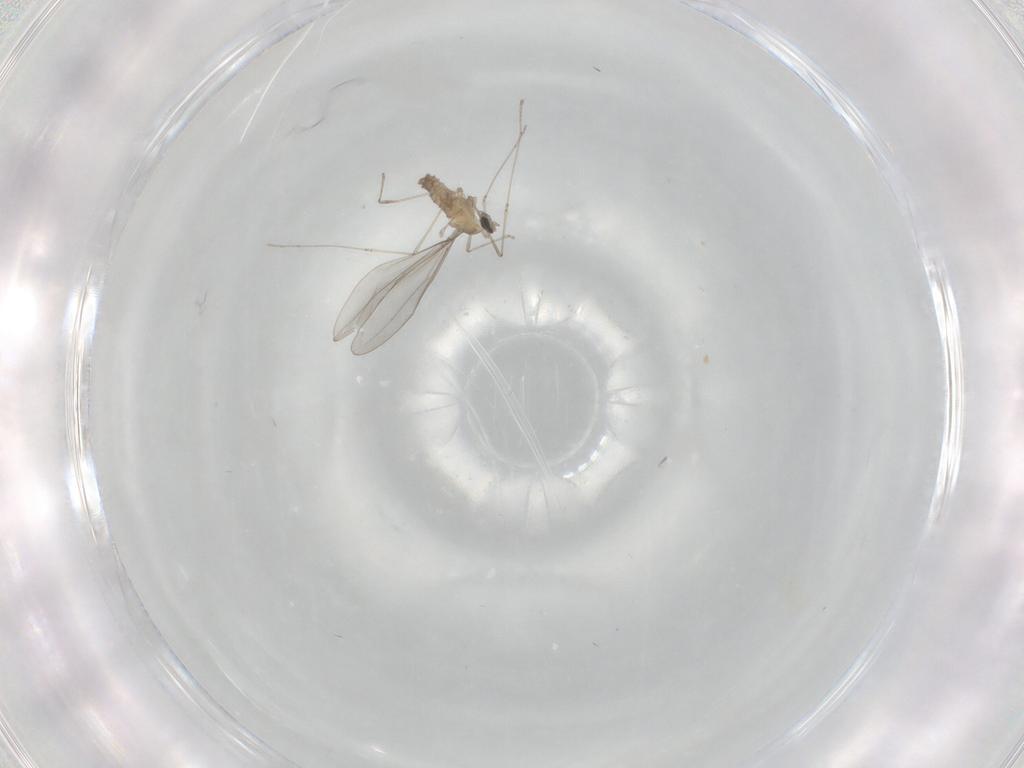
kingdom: Animalia
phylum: Arthropoda
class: Insecta
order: Diptera
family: Cecidomyiidae
